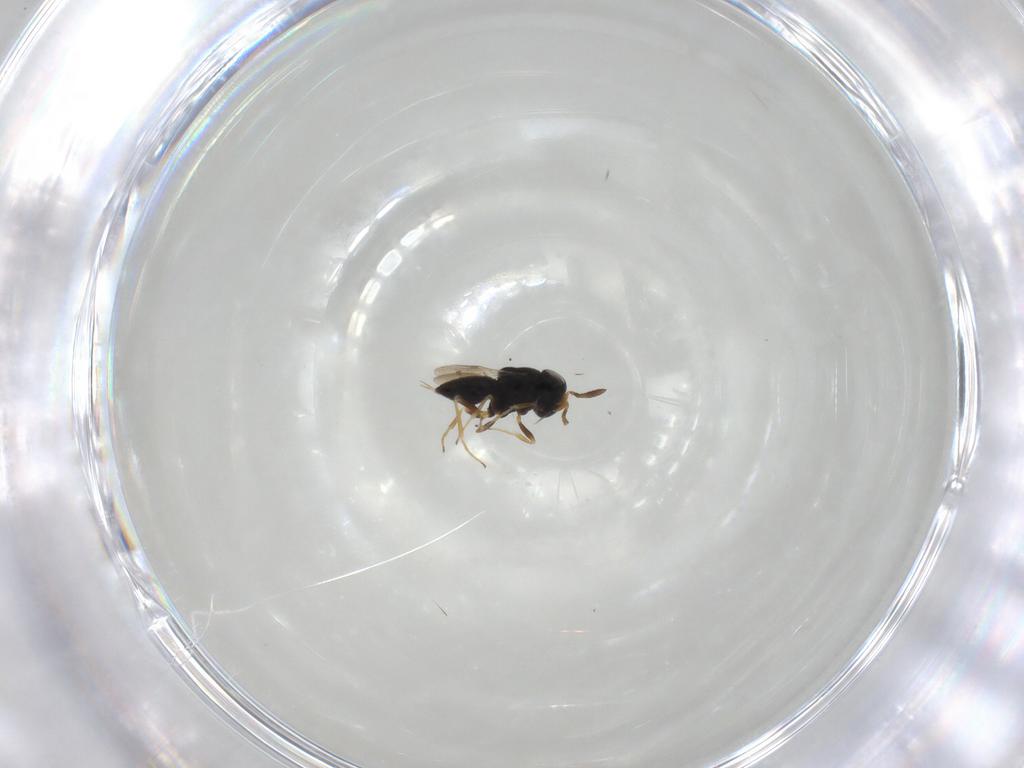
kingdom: Animalia
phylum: Arthropoda
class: Insecta
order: Hymenoptera
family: Scelionidae
